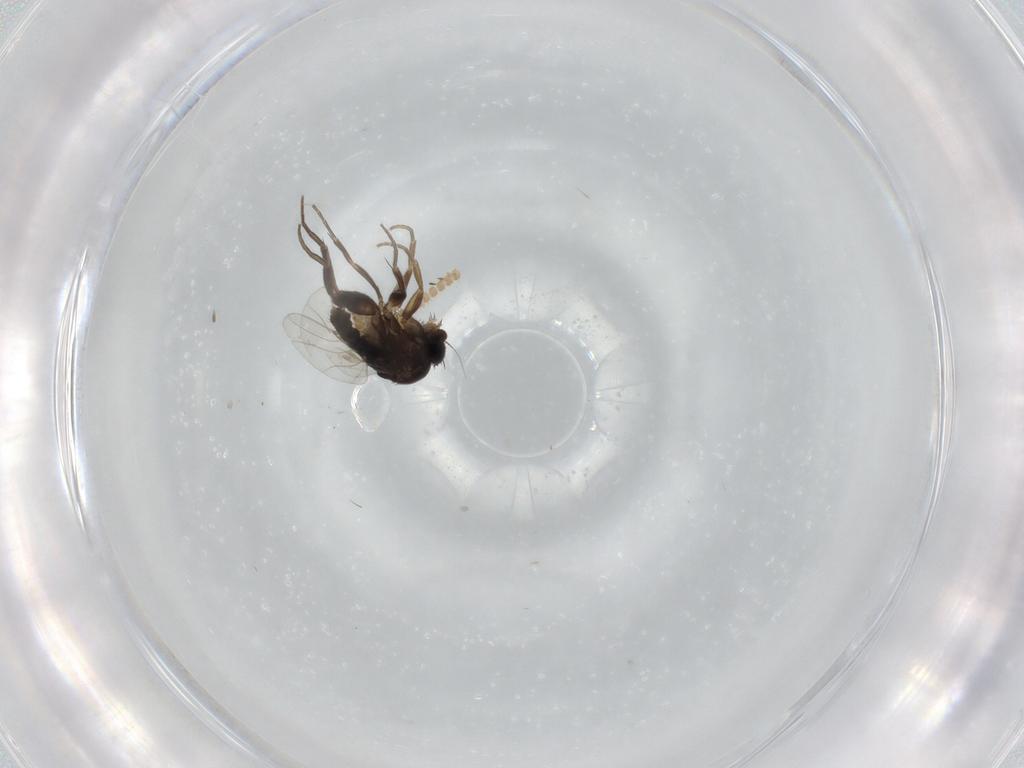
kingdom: Animalia
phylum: Arthropoda
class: Insecta
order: Diptera
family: Phoridae
